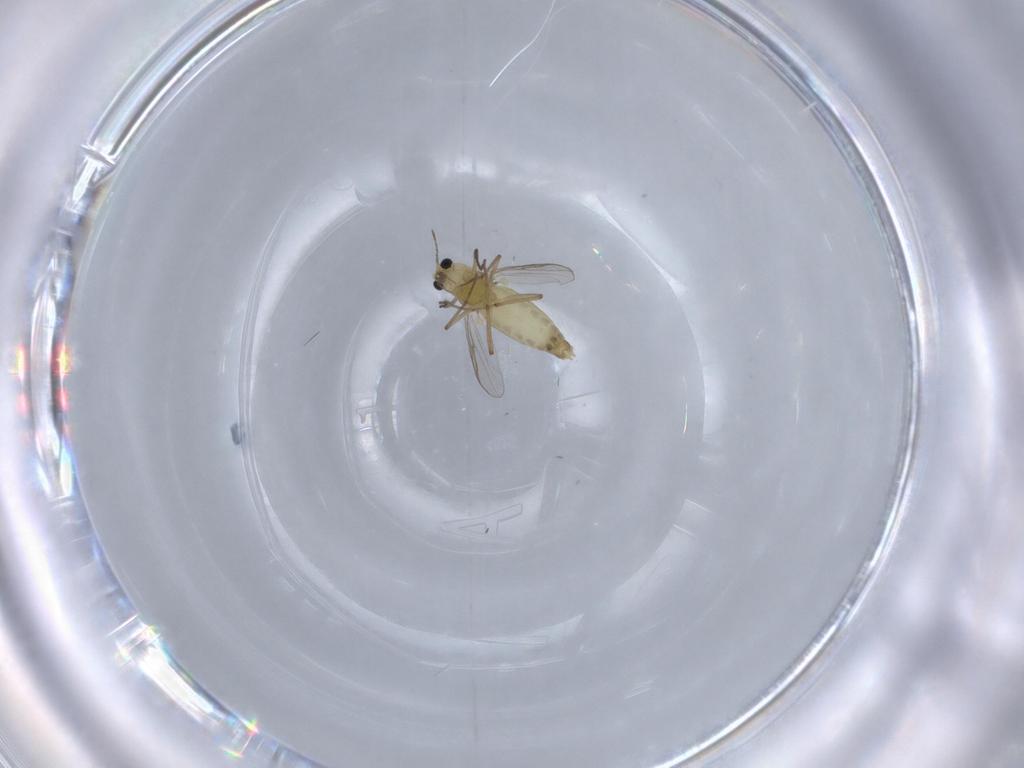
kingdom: Animalia
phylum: Arthropoda
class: Insecta
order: Diptera
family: Chironomidae
